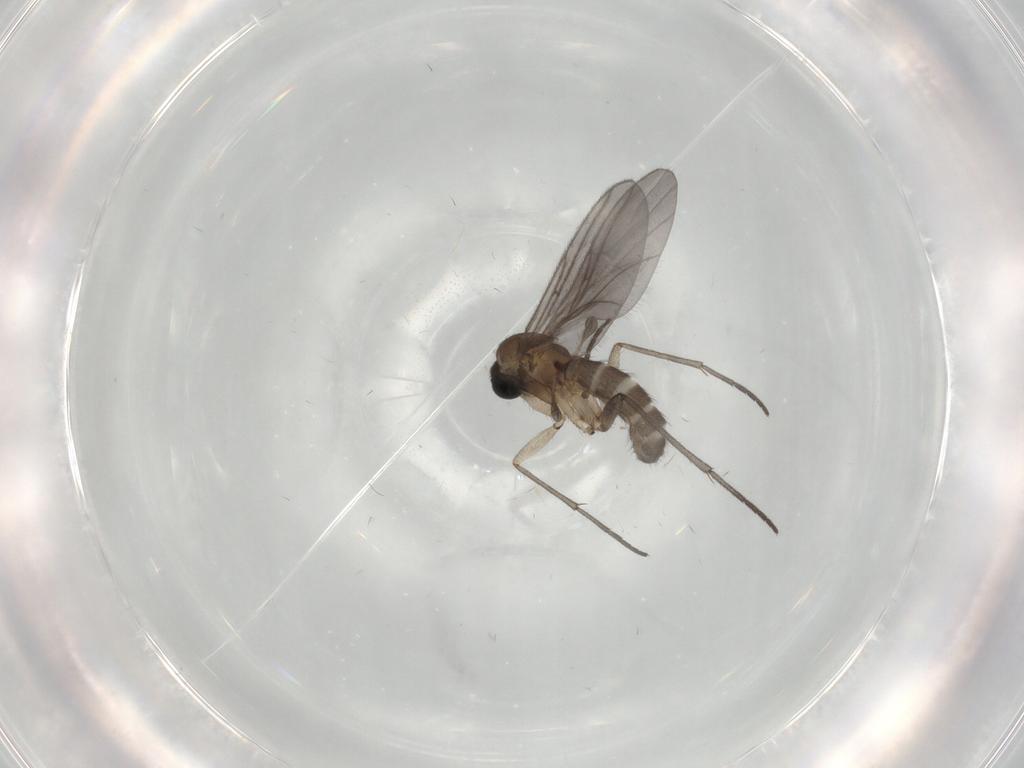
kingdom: Animalia
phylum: Arthropoda
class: Insecta
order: Diptera
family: Sciaridae
